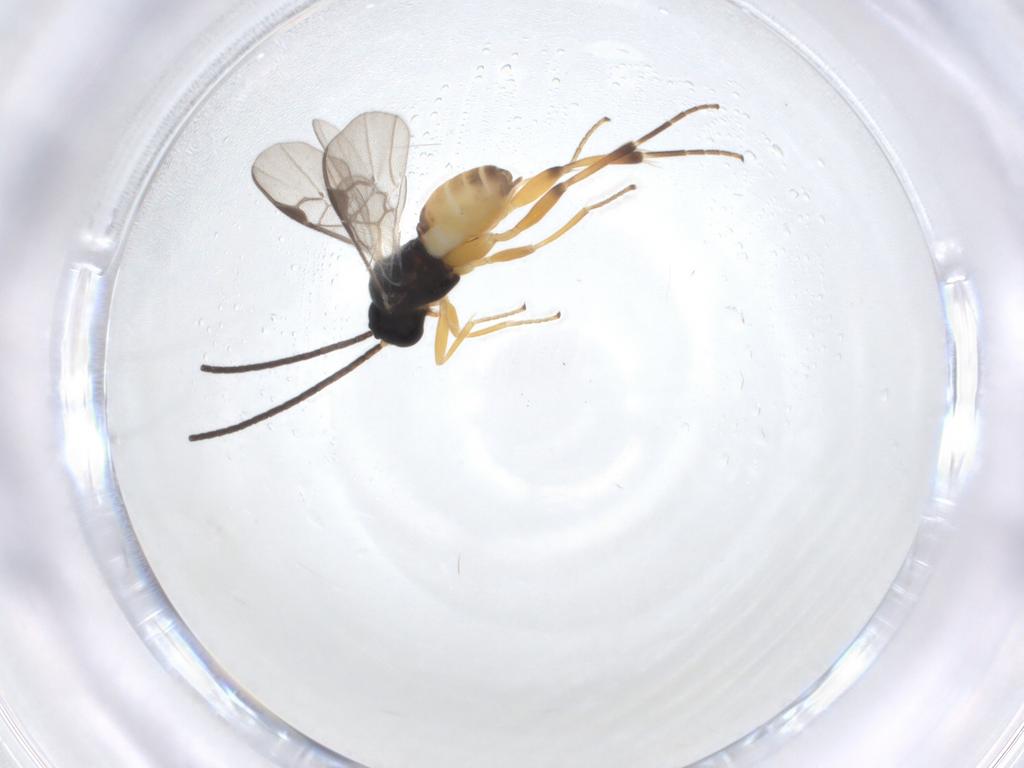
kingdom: Animalia
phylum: Arthropoda
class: Insecta
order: Hymenoptera
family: Braconidae
